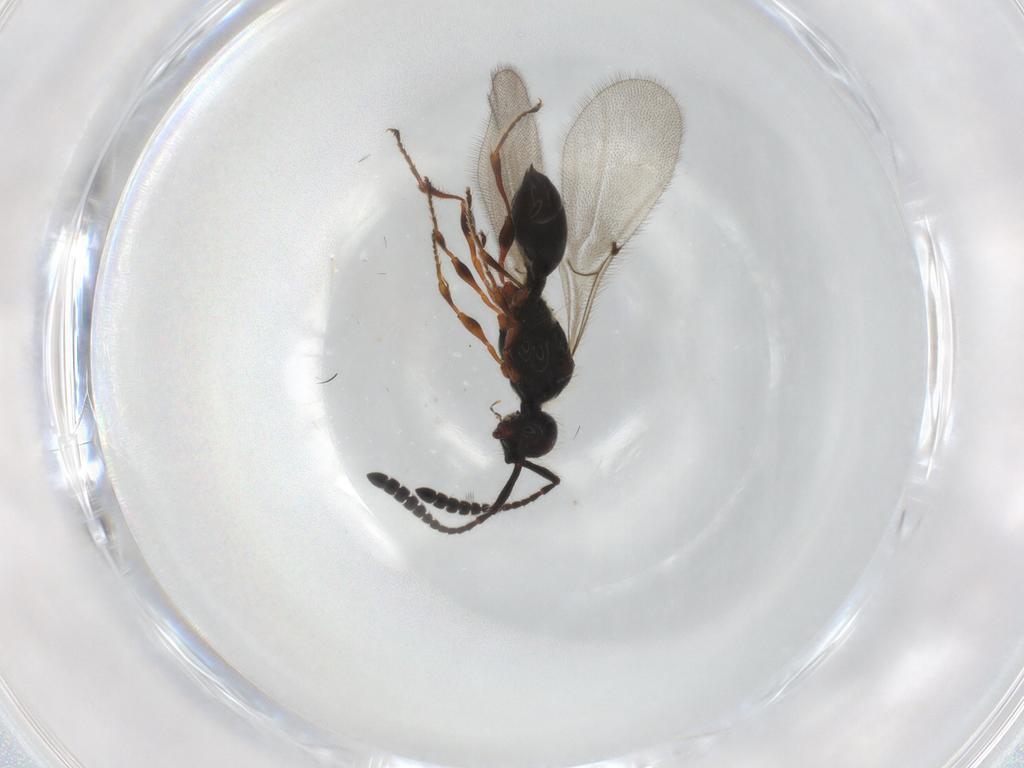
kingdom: Animalia
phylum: Arthropoda
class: Insecta
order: Hymenoptera
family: Diapriidae
